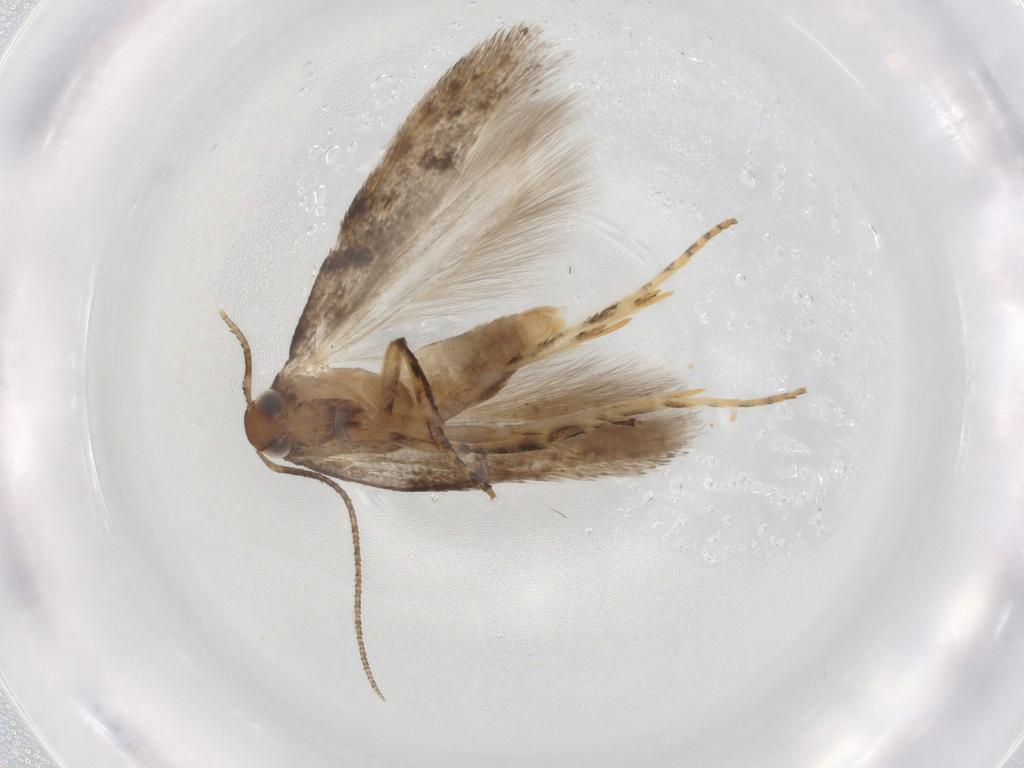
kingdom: Animalia
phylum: Arthropoda
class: Insecta
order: Lepidoptera
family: Gelechiidae
